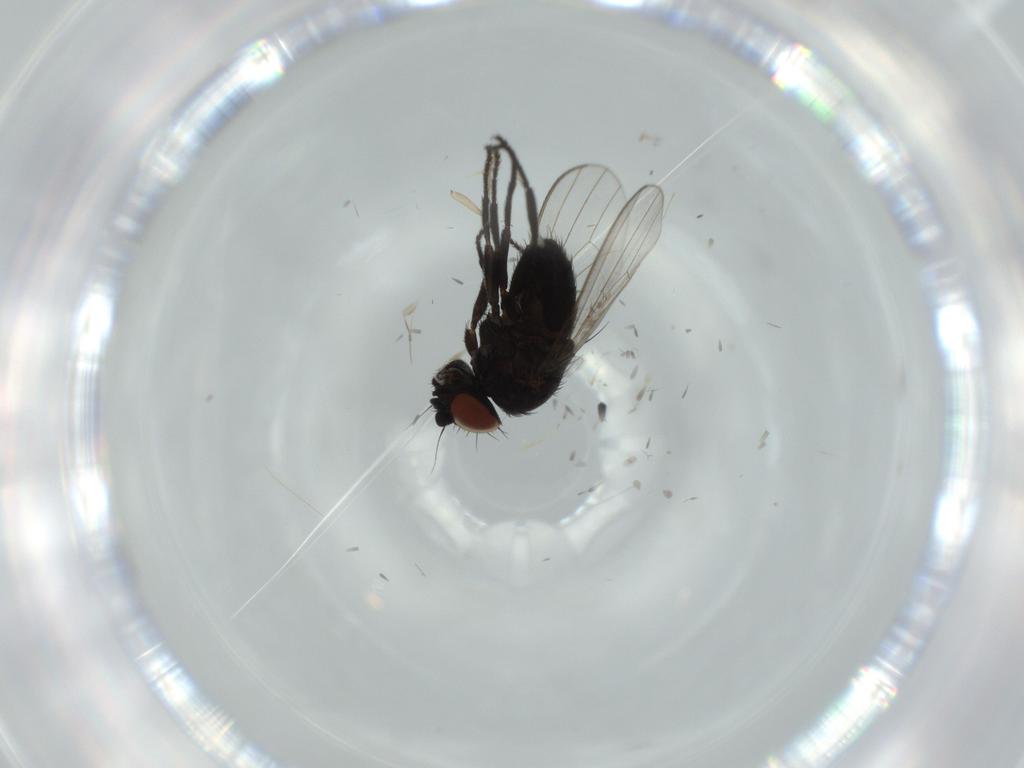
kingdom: Animalia
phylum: Arthropoda
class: Insecta
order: Diptera
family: Psychodidae
